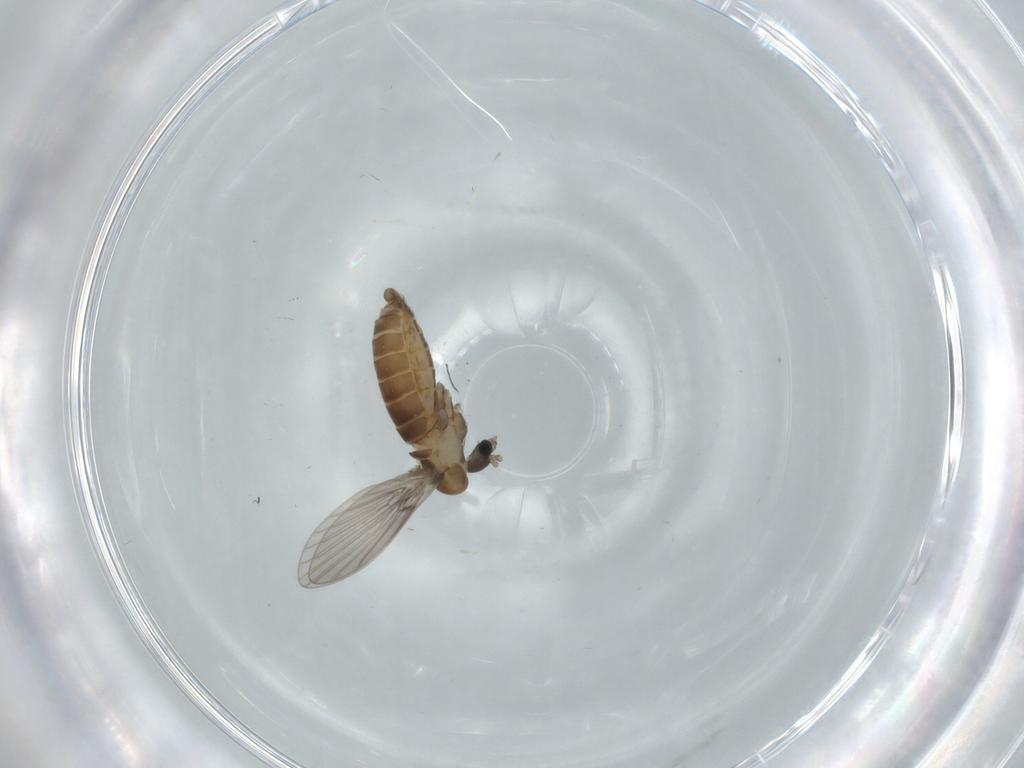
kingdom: Animalia
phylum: Arthropoda
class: Insecta
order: Diptera
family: Psychodidae
